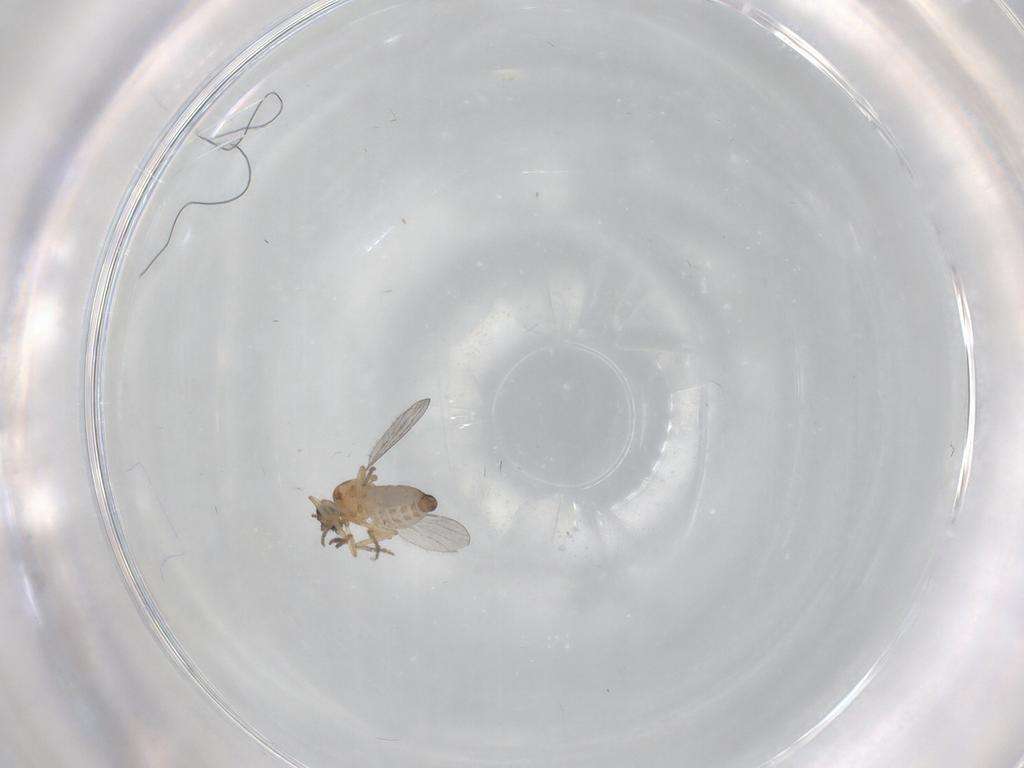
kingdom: Animalia
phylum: Arthropoda
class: Insecta
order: Diptera
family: Ceratopogonidae
